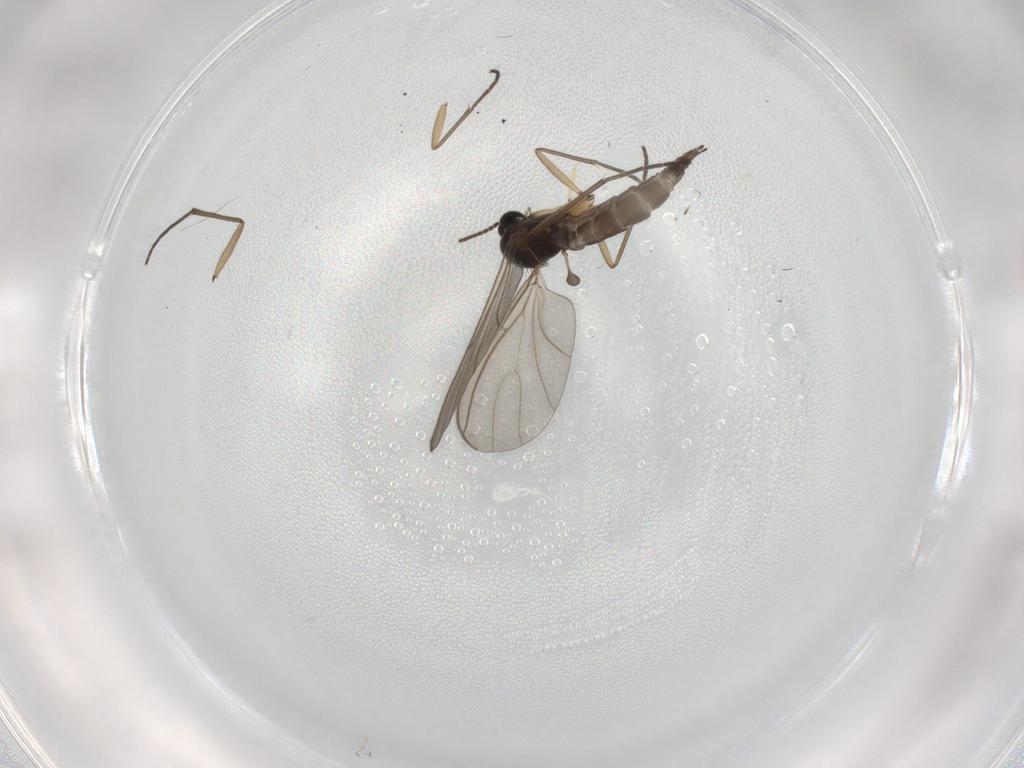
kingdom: Animalia
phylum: Arthropoda
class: Insecta
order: Diptera
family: Sciaridae
